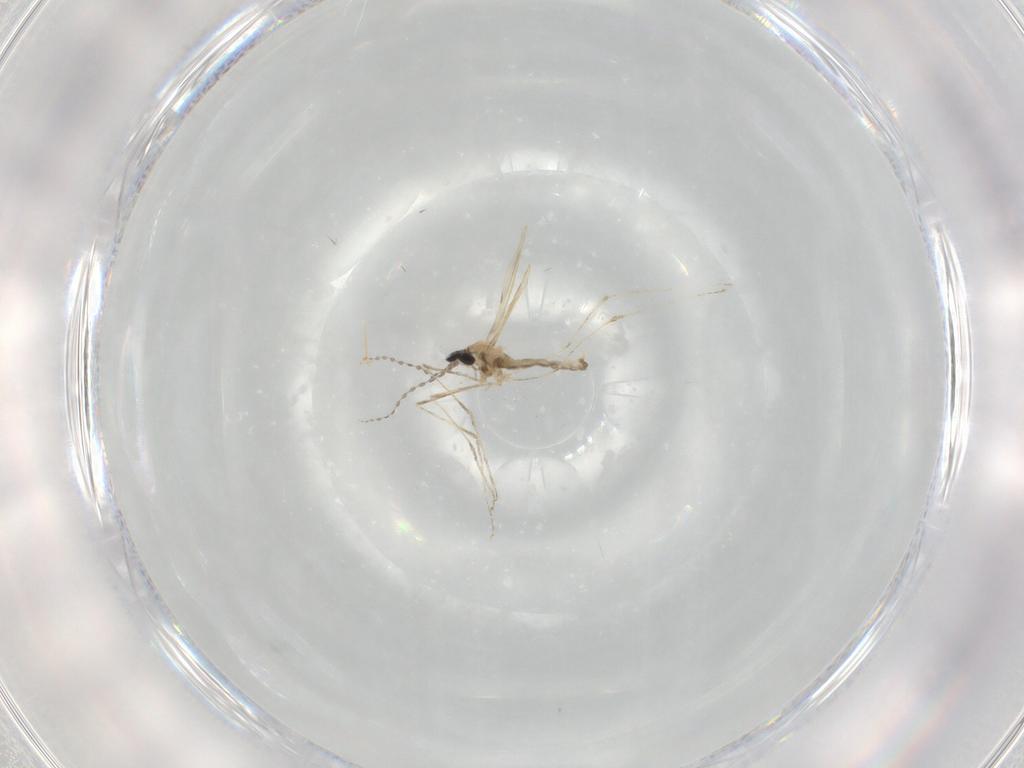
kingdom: Animalia
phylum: Arthropoda
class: Insecta
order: Diptera
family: Cecidomyiidae
